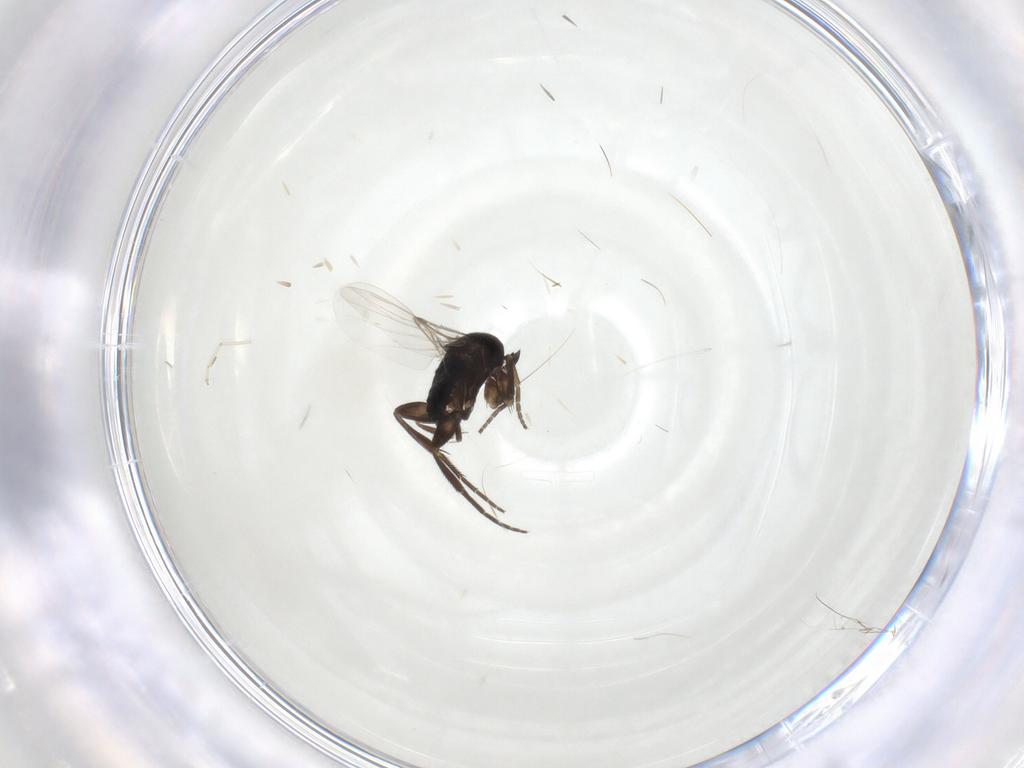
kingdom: Animalia
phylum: Arthropoda
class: Insecta
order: Diptera
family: Phoridae
